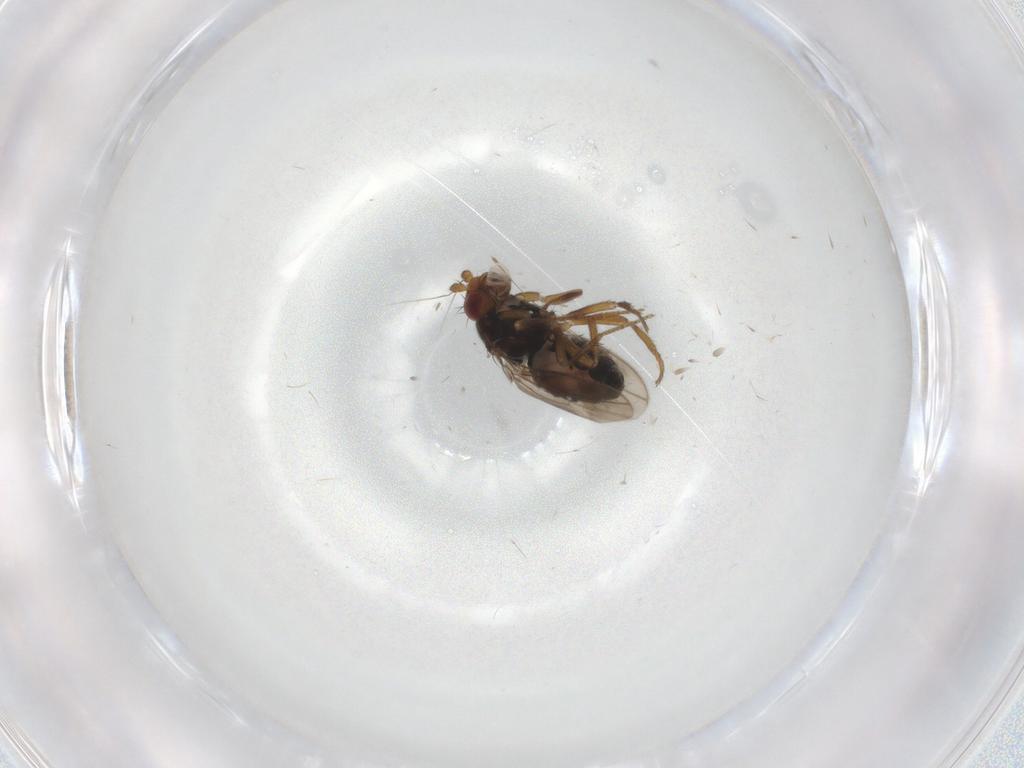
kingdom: Animalia
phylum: Arthropoda
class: Insecta
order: Diptera
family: Sphaeroceridae
